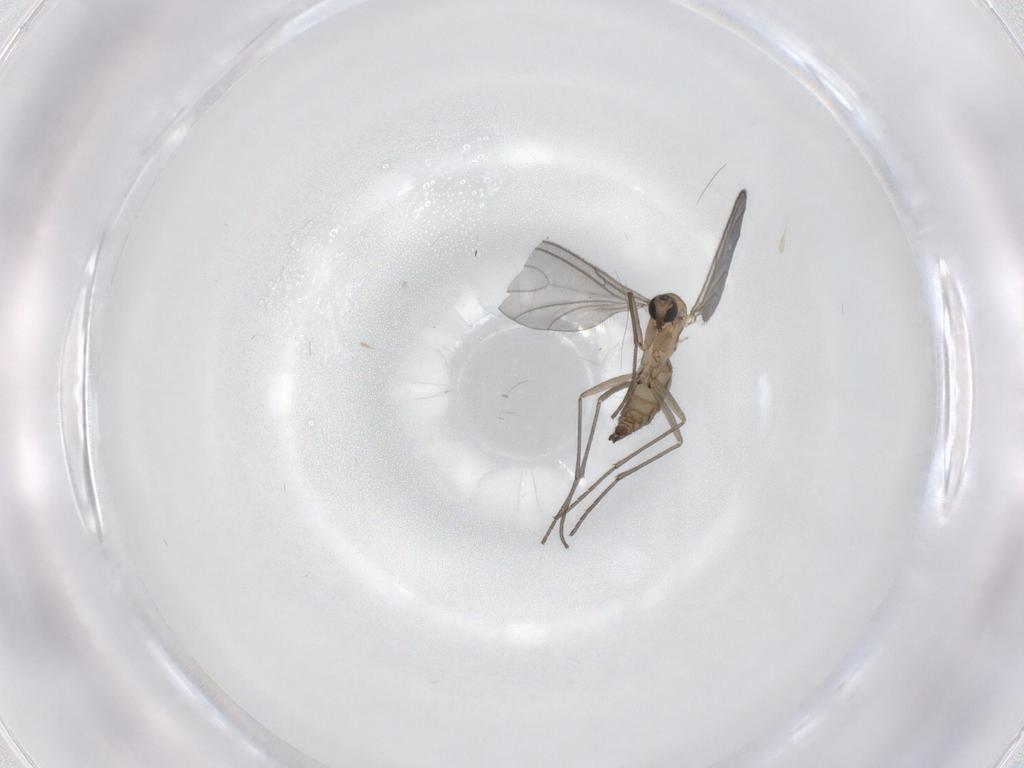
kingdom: Animalia
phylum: Arthropoda
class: Insecta
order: Diptera
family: Sciaridae
